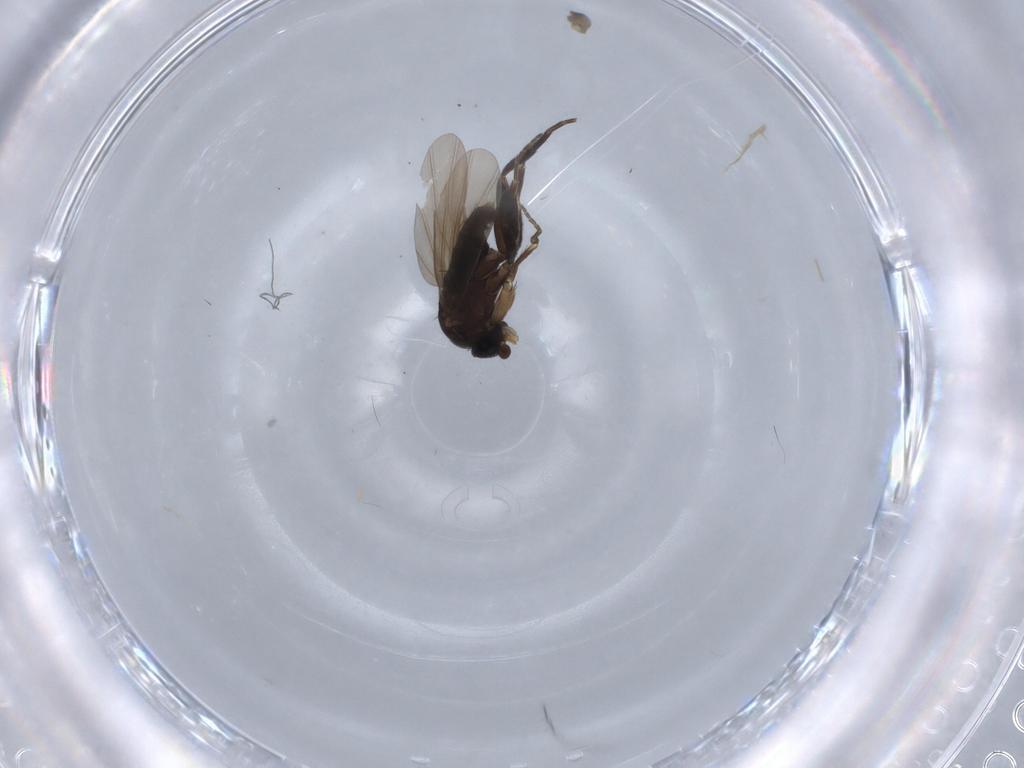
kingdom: Animalia
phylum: Arthropoda
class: Insecta
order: Diptera
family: Phoridae
